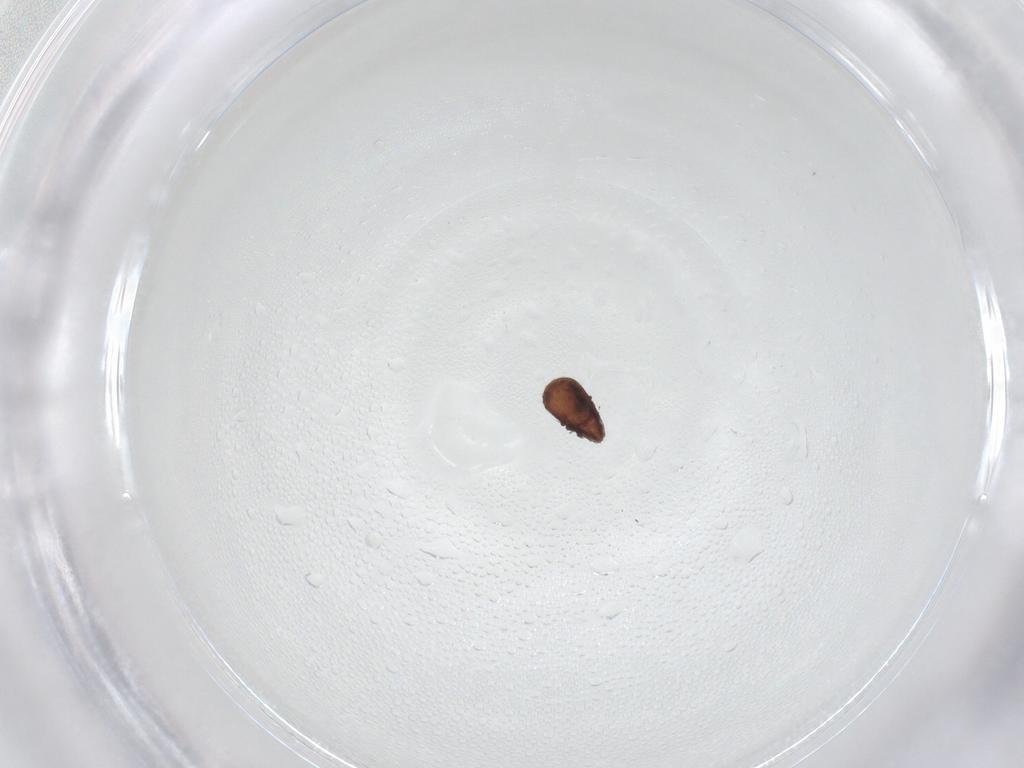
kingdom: Animalia
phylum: Arthropoda
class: Arachnida
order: Sarcoptiformes
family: Carabodidae
